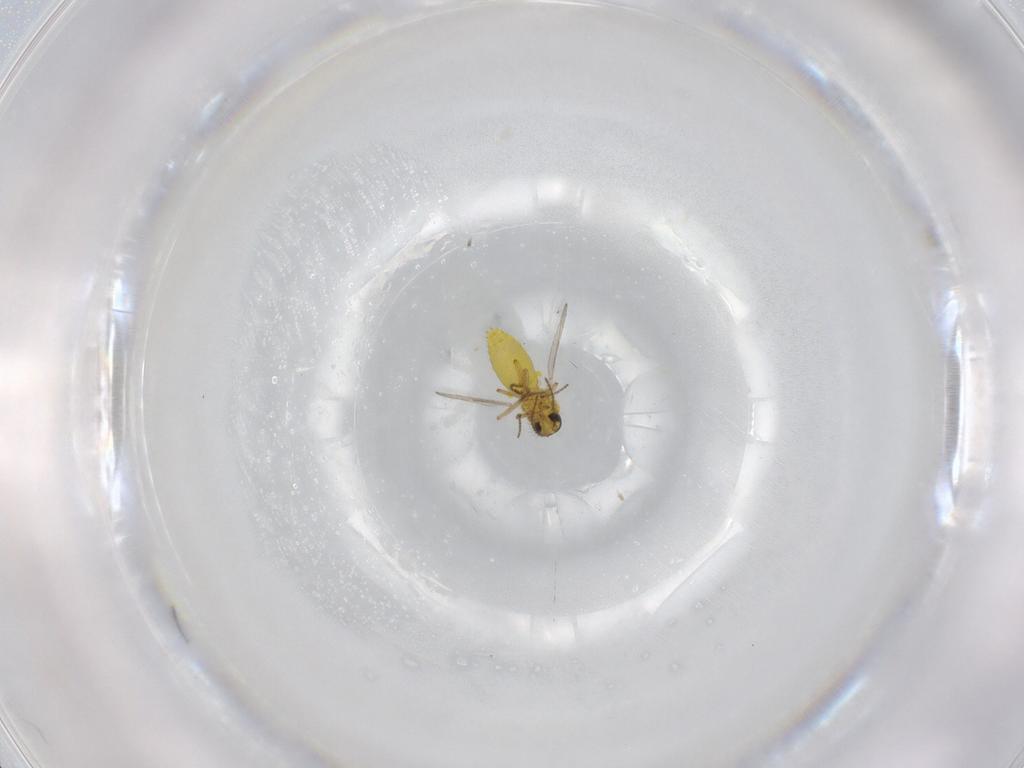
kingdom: Animalia
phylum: Arthropoda
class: Insecta
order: Diptera
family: Ceratopogonidae
